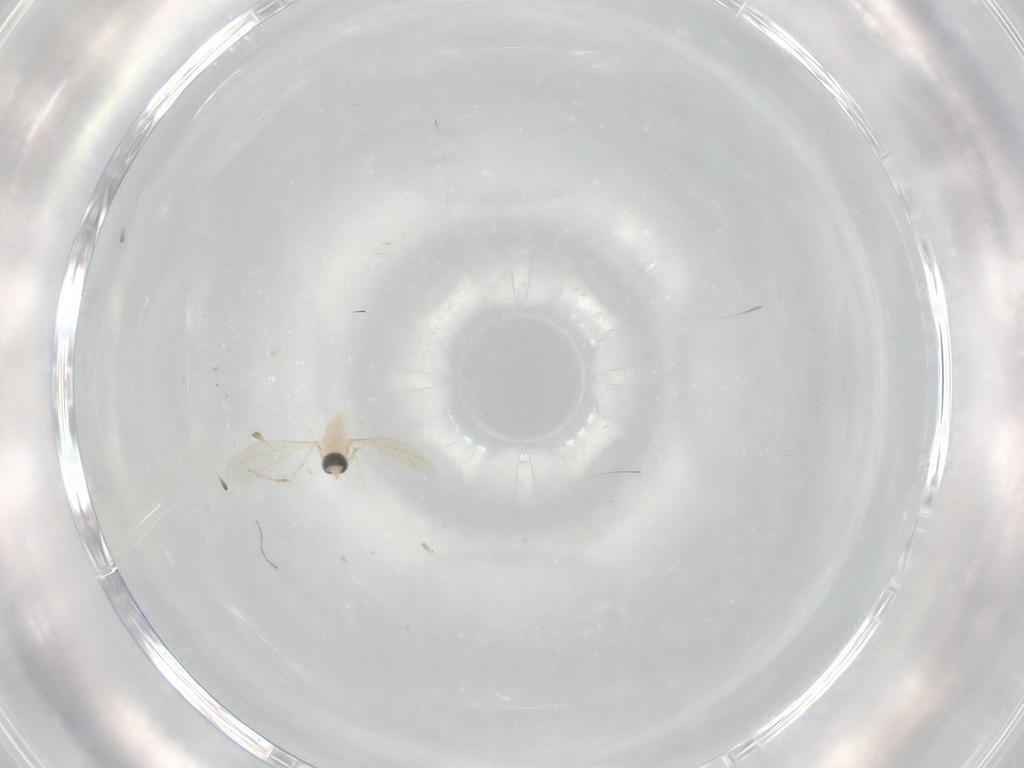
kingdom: Animalia
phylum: Arthropoda
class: Insecta
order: Diptera
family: Cecidomyiidae
